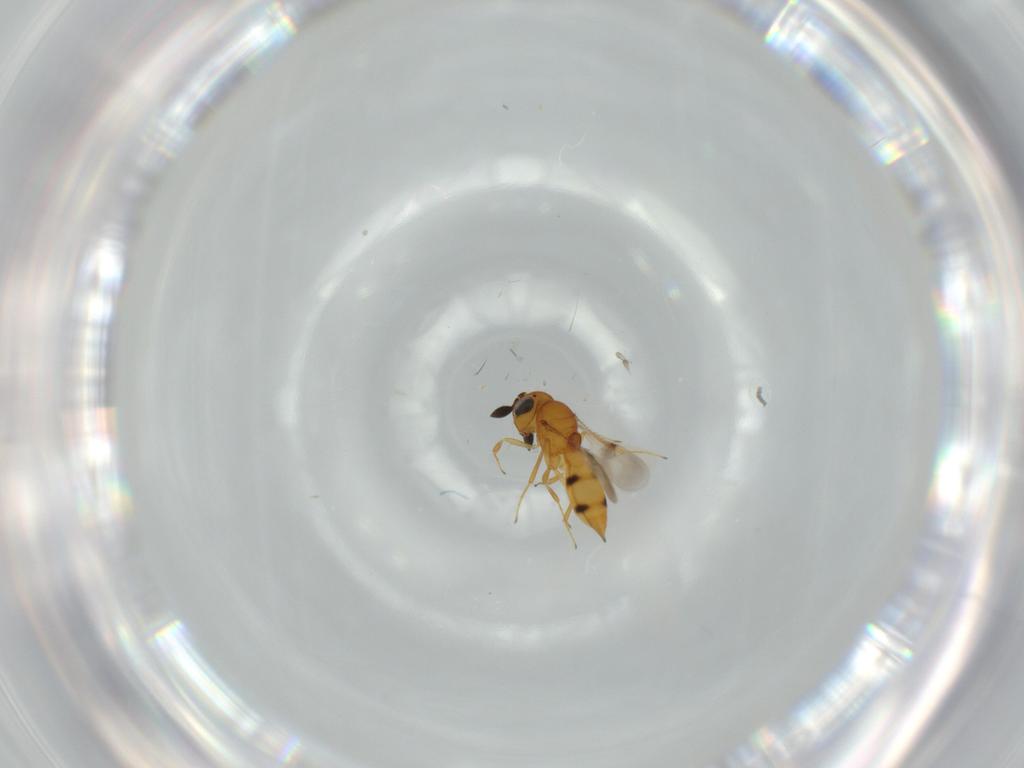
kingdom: Animalia
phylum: Arthropoda
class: Insecta
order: Hymenoptera
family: Scelionidae
